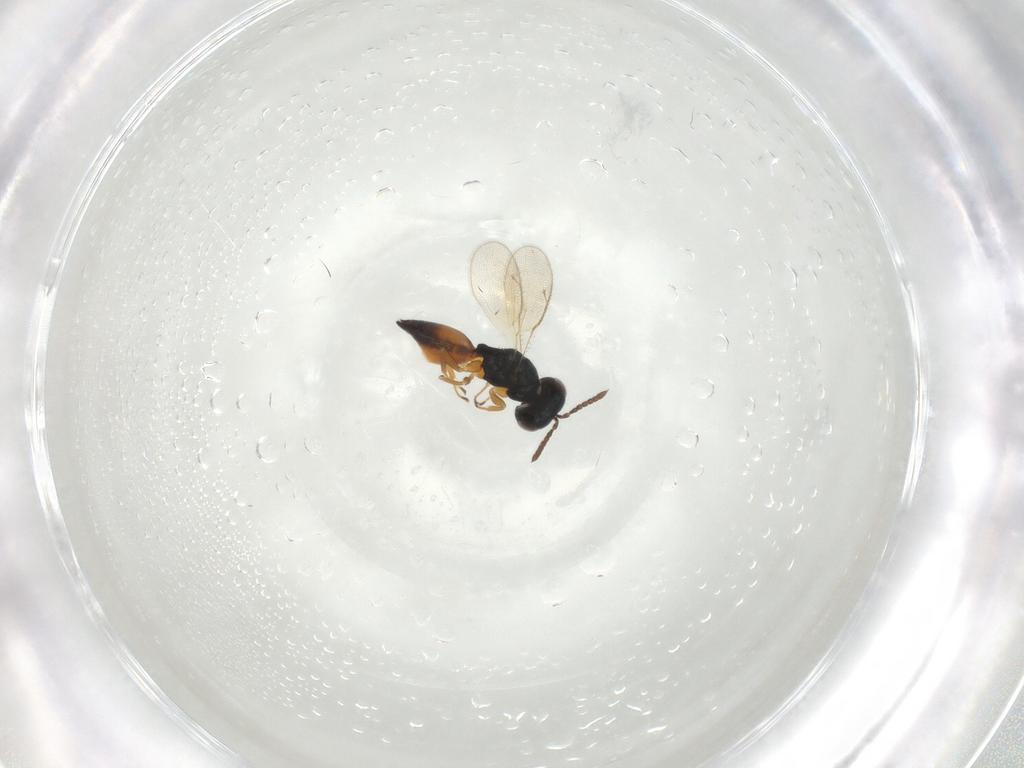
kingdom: Animalia
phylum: Arthropoda
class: Insecta
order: Hymenoptera
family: Pteromalidae
